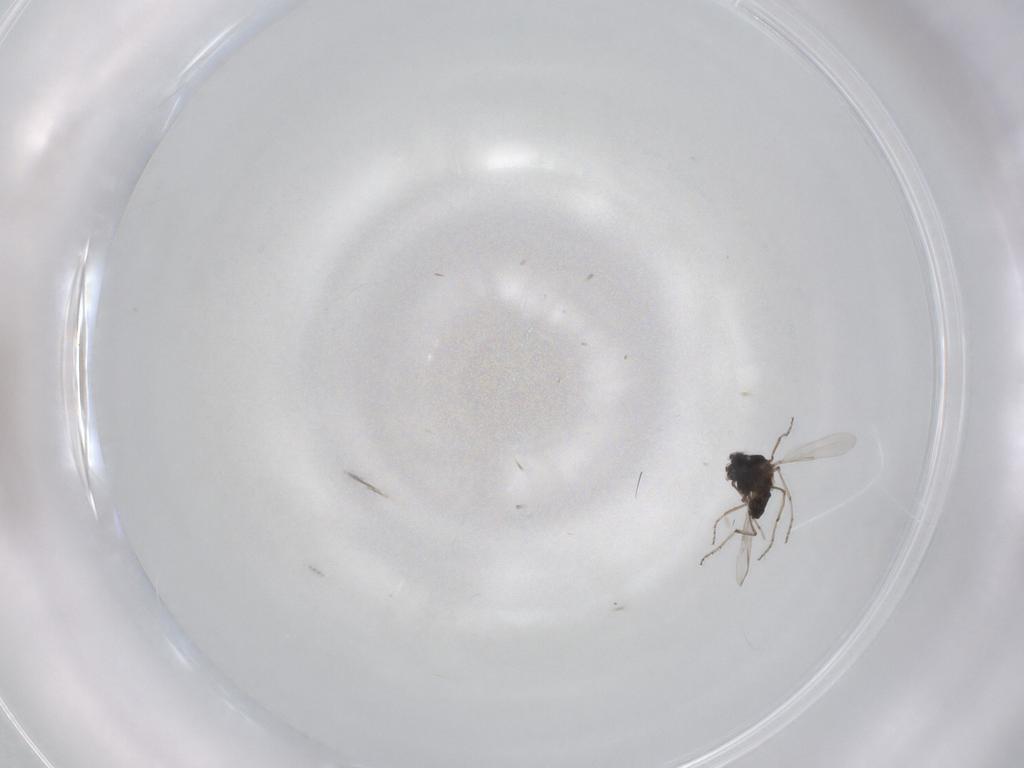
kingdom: Animalia
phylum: Arthropoda
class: Insecta
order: Diptera
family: Ceratopogonidae
